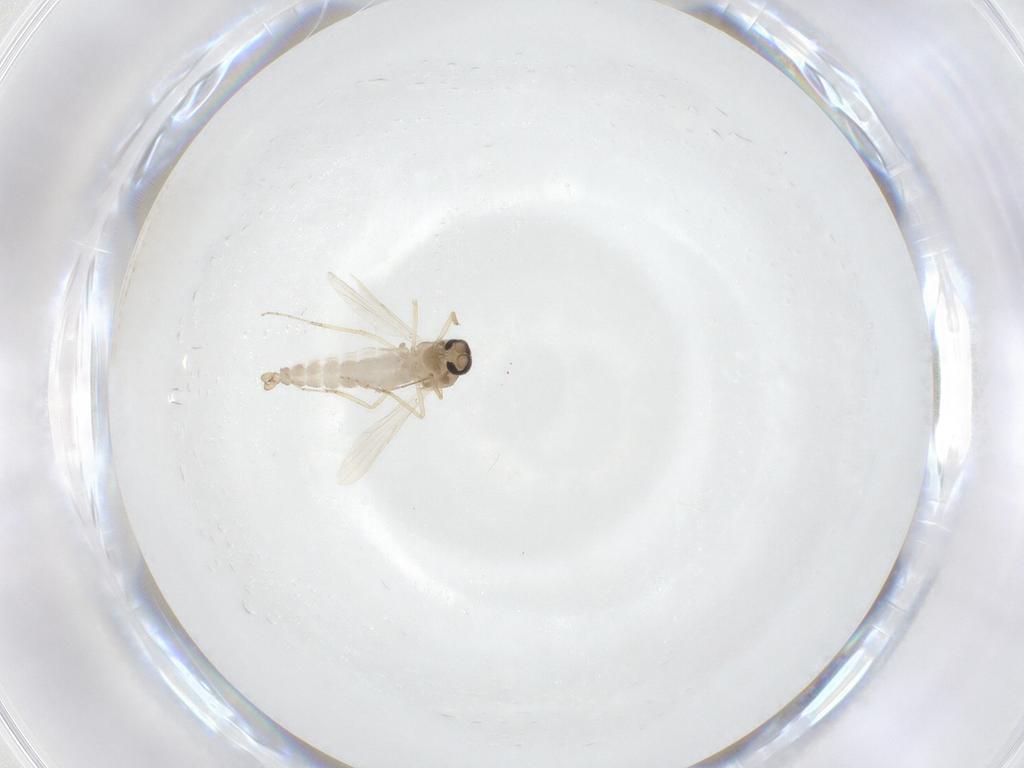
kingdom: Animalia
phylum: Arthropoda
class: Insecta
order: Diptera
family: Ceratopogonidae
